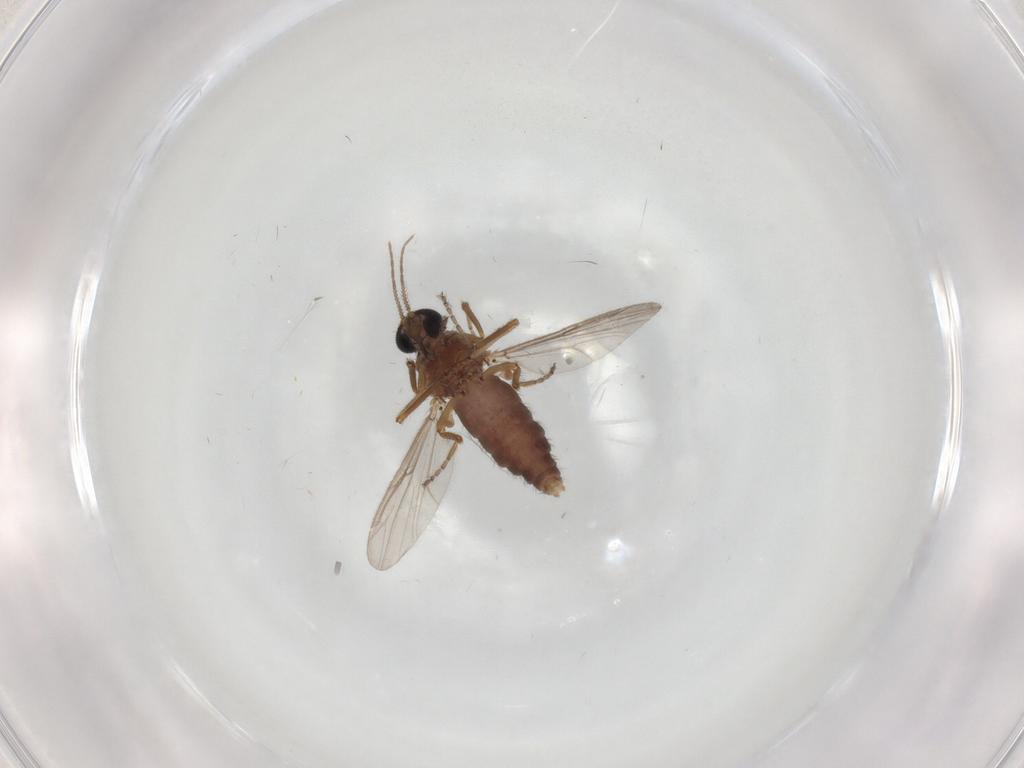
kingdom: Animalia
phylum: Arthropoda
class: Insecta
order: Diptera
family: Ceratopogonidae
